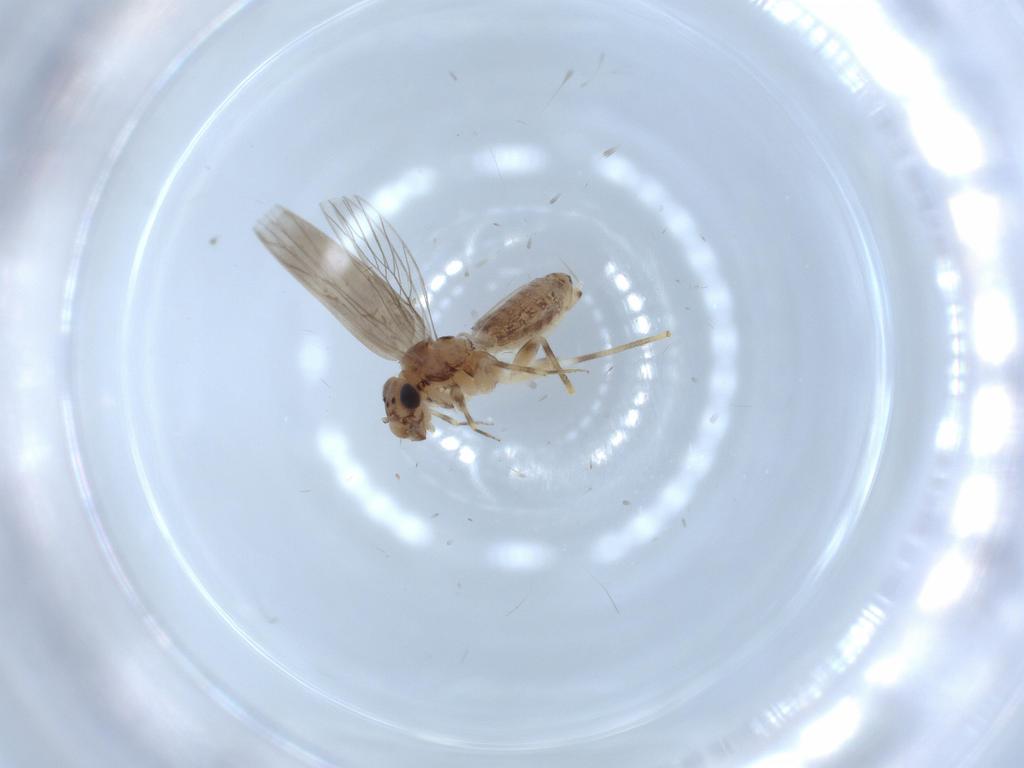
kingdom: Animalia
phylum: Arthropoda
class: Insecta
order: Psocodea
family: Lepidopsocidae
